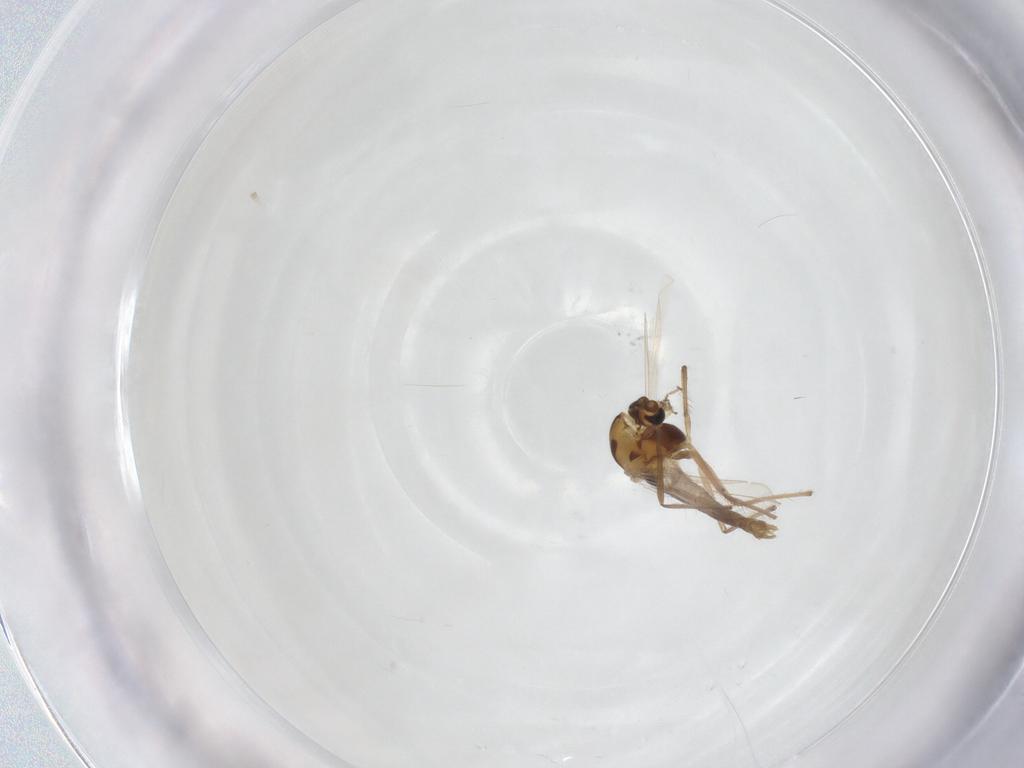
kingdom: Animalia
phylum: Arthropoda
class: Insecta
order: Diptera
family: Chironomidae
